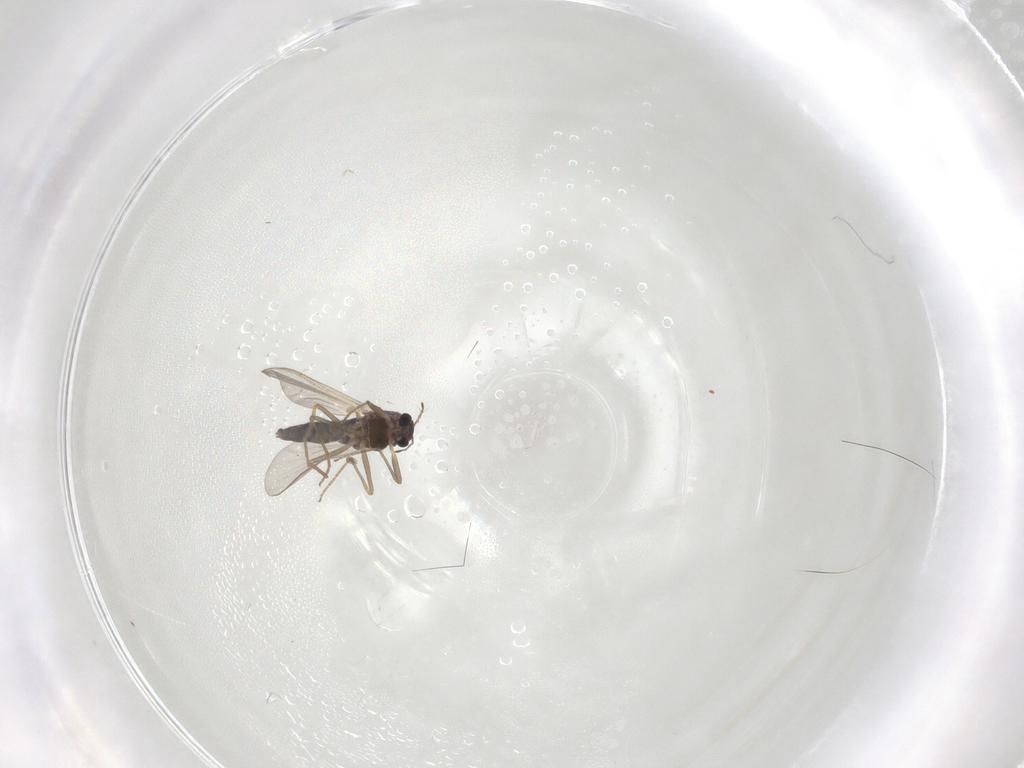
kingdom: Animalia
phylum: Arthropoda
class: Insecta
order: Diptera
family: Chironomidae
